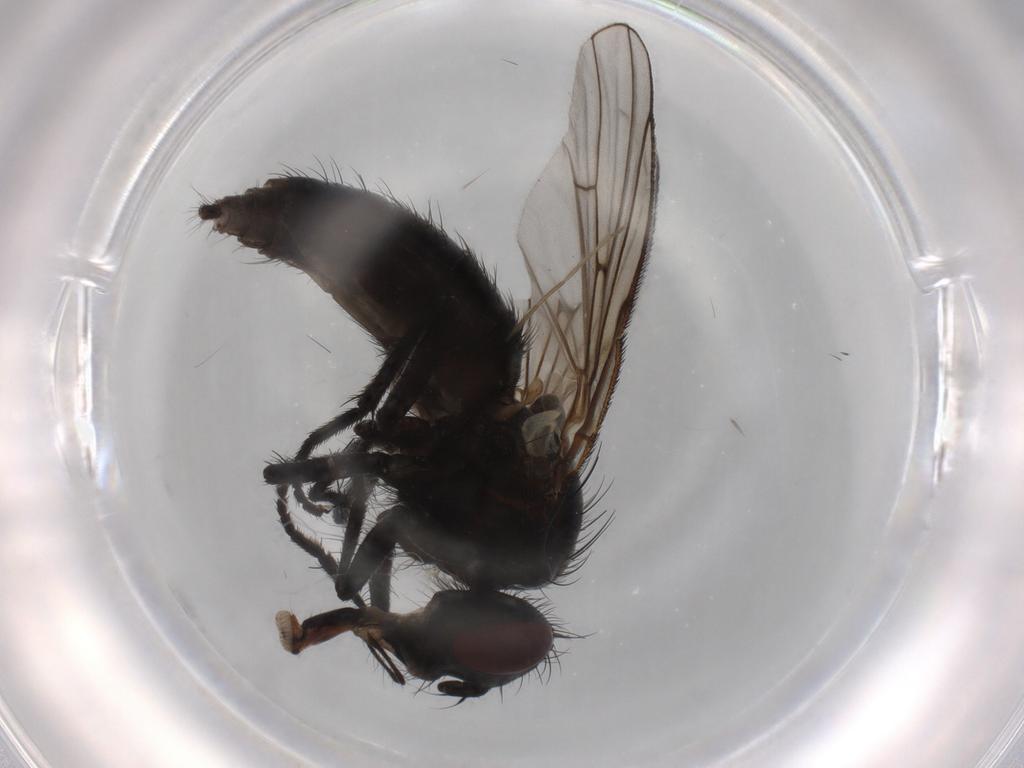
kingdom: Animalia
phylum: Arthropoda
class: Insecta
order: Diptera
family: Muscidae
